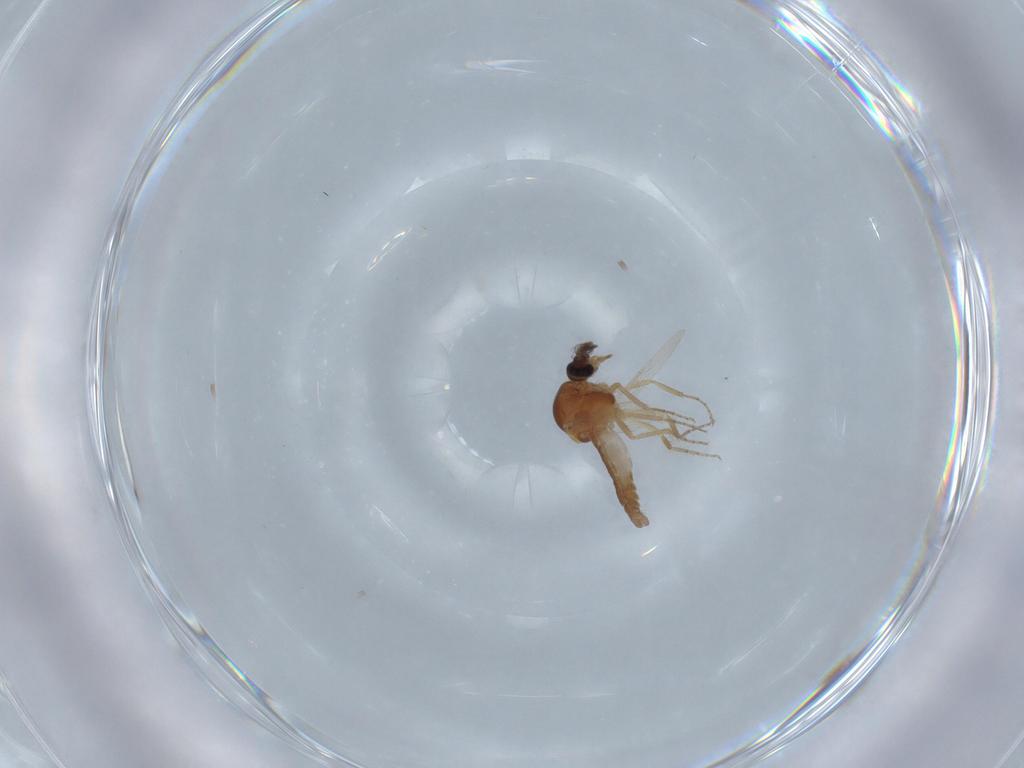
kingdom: Animalia
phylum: Arthropoda
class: Insecta
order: Diptera
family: Ceratopogonidae
